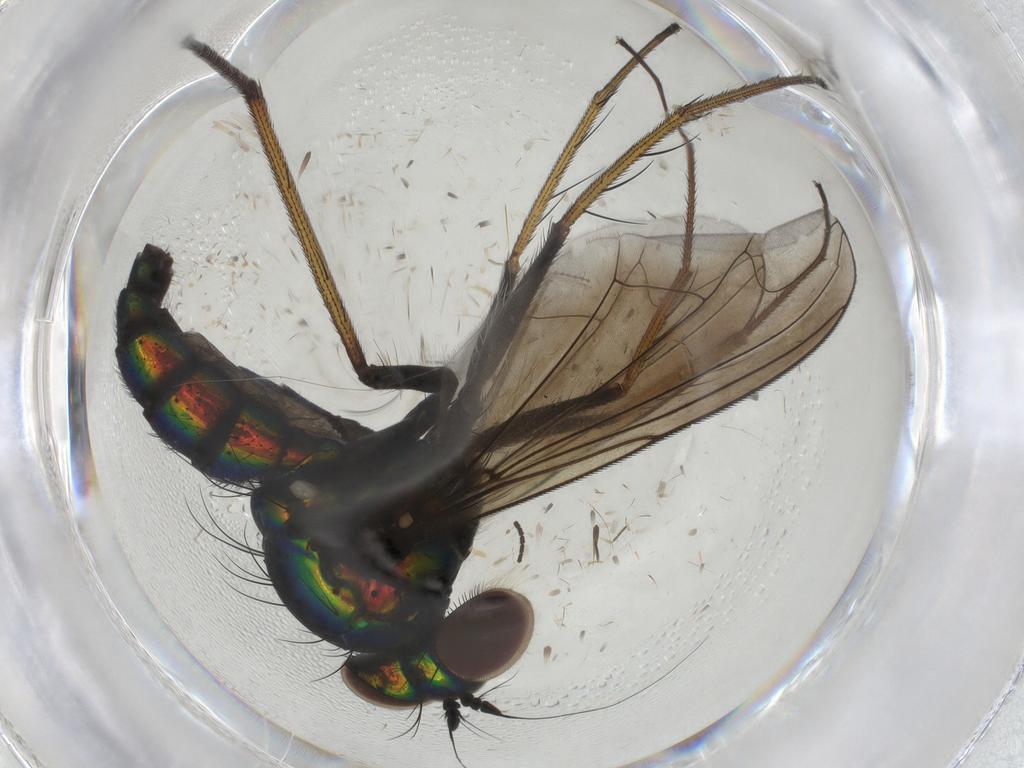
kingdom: Animalia
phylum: Arthropoda
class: Insecta
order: Diptera
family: Dolichopodidae
